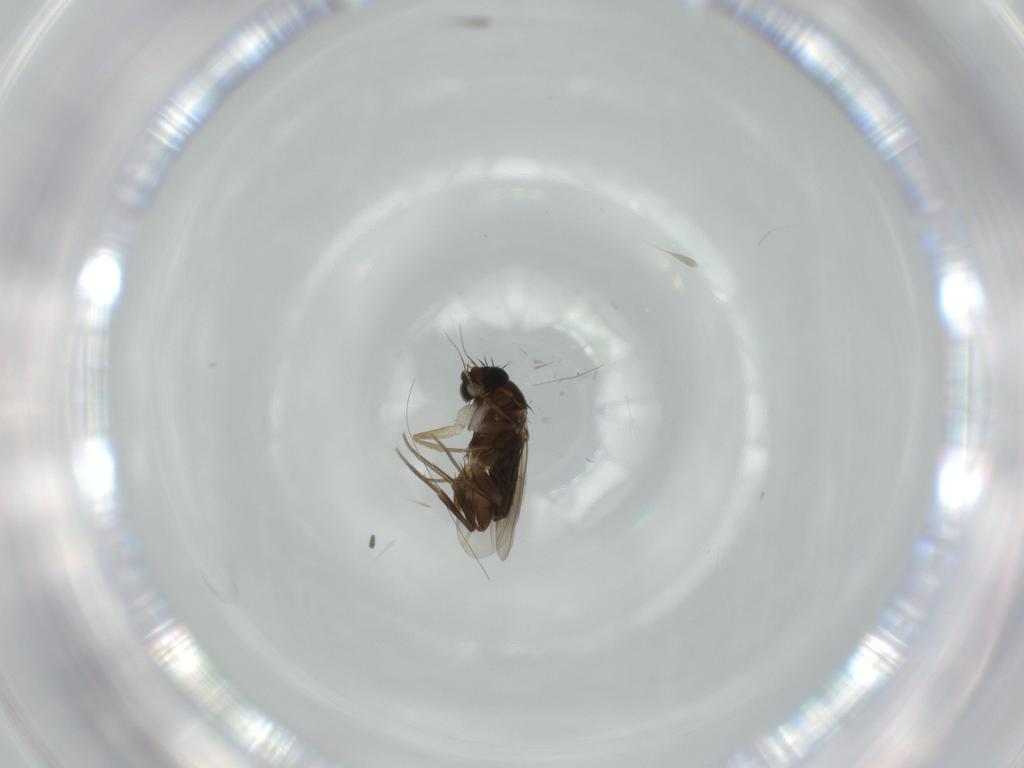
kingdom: Animalia
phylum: Arthropoda
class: Insecta
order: Diptera
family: Phoridae
